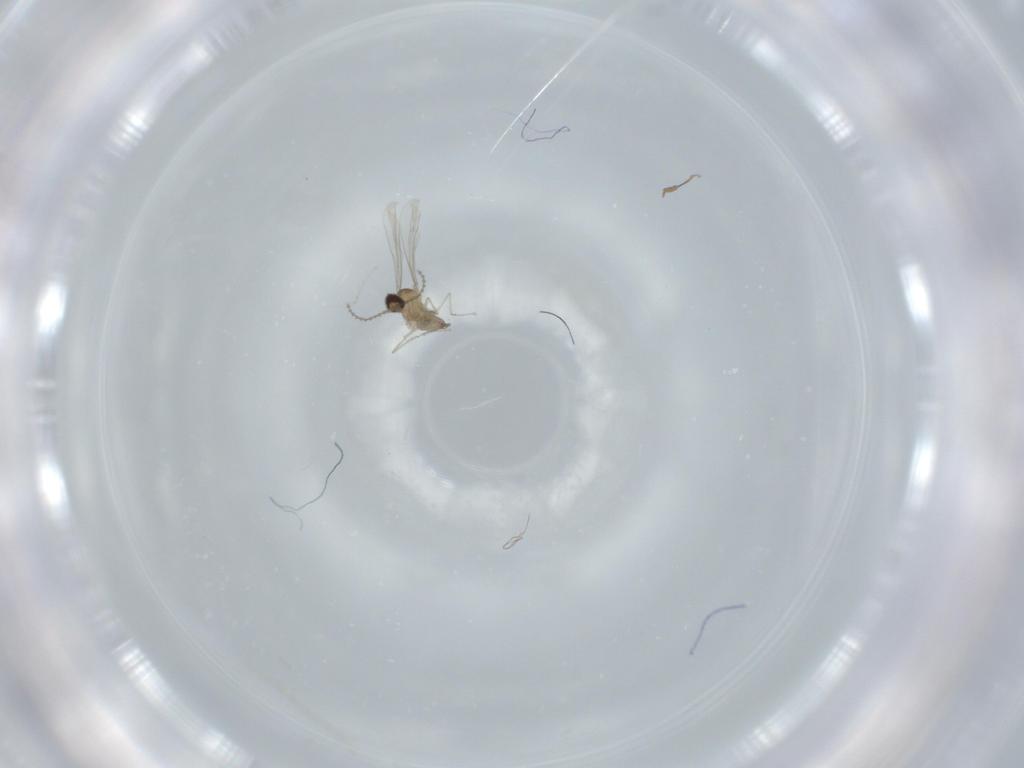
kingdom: Animalia
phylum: Arthropoda
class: Insecta
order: Diptera
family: Cecidomyiidae
